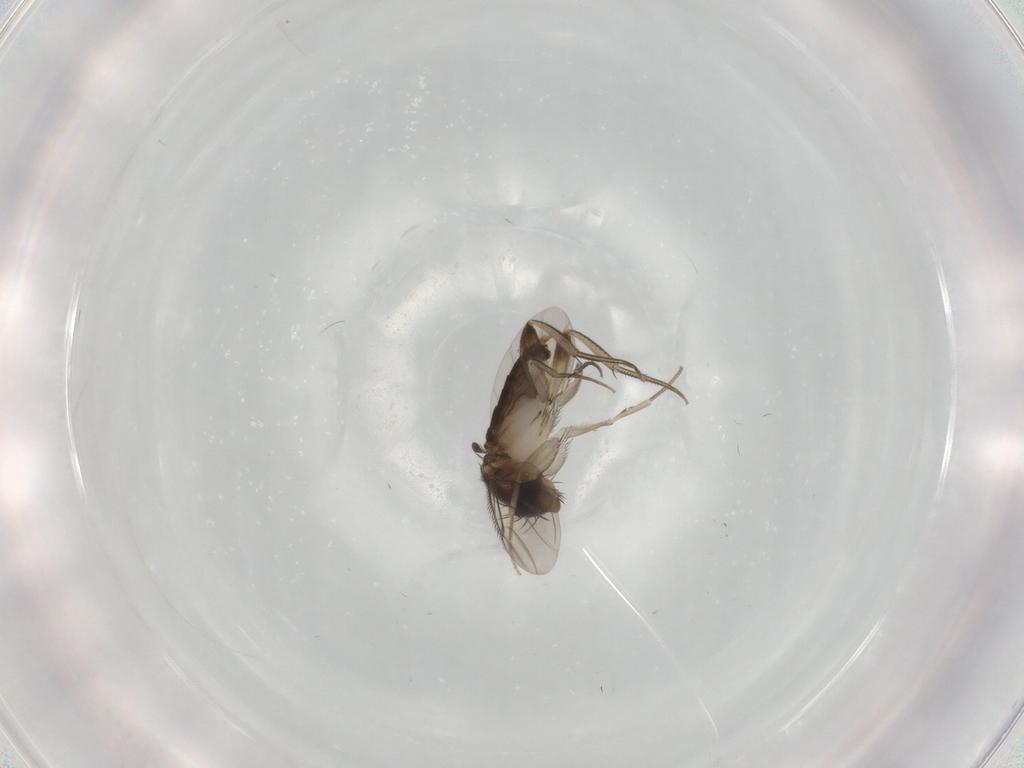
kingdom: Animalia
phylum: Arthropoda
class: Insecta
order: Diptera
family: Phoridae
